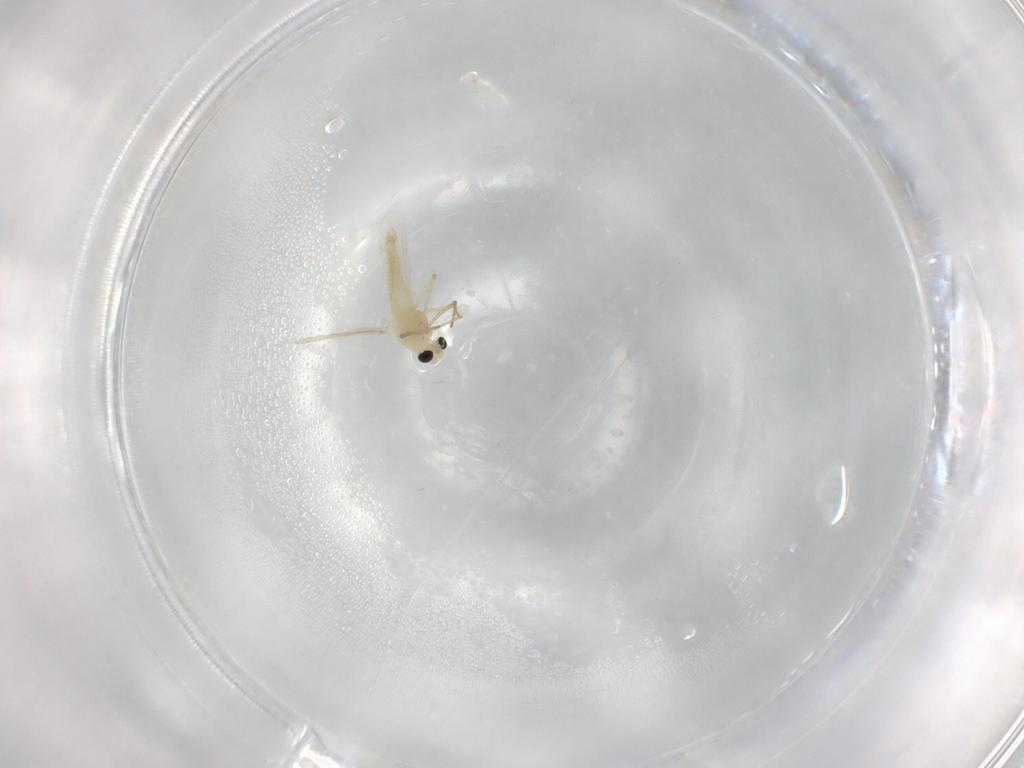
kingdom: Animalia
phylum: Arthropoda
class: Insecta
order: Diptera
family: Chironomidae
